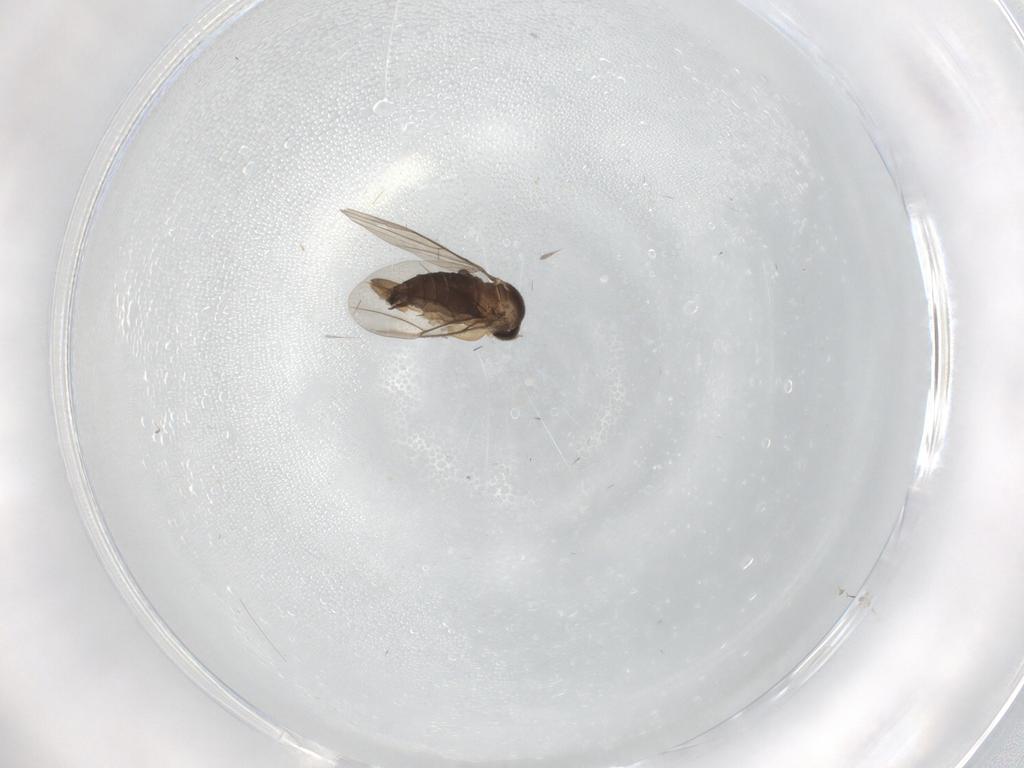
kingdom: Animalia
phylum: Arthropoda
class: Insecta
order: Diptera
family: Phoridae
